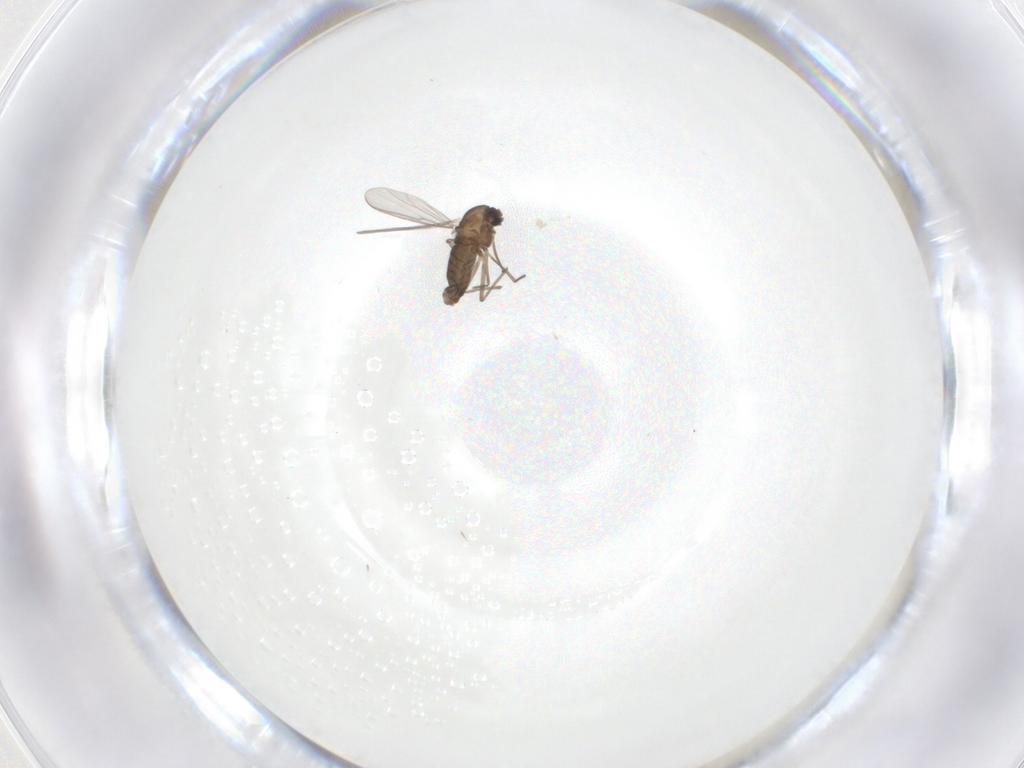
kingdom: Animalia
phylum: Arthropoda
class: Insecta
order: Diptera
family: Chironomidae
